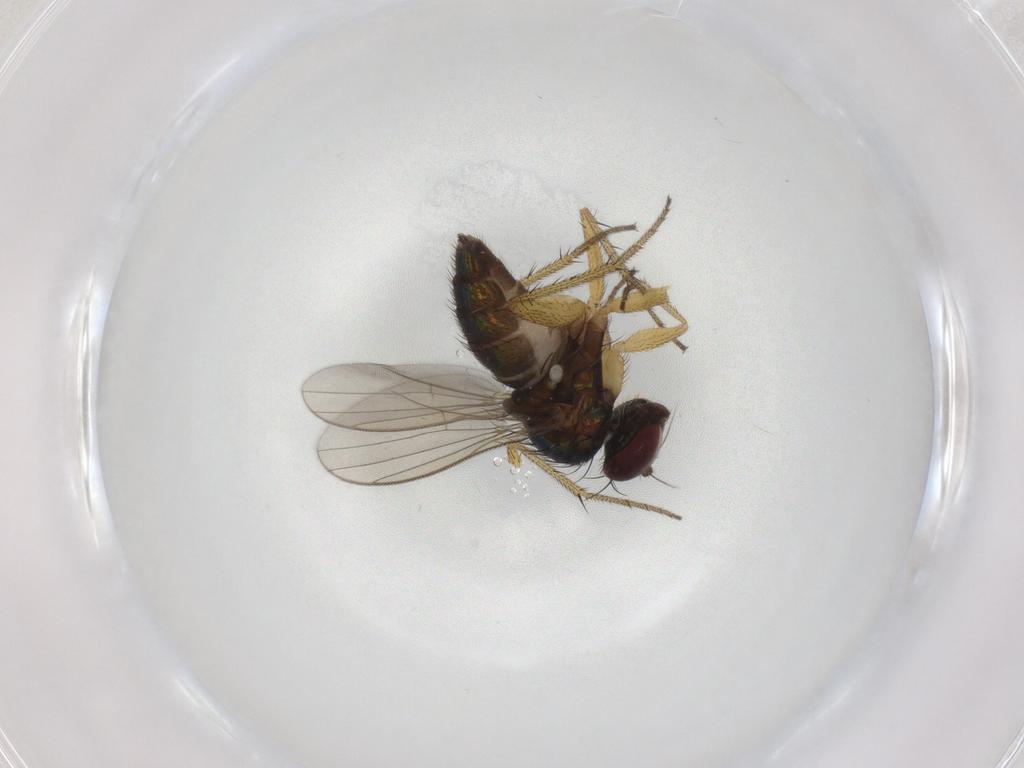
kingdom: Animalia
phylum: Arthropoda
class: Insecta
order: Diptera
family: Dolichopodidae
